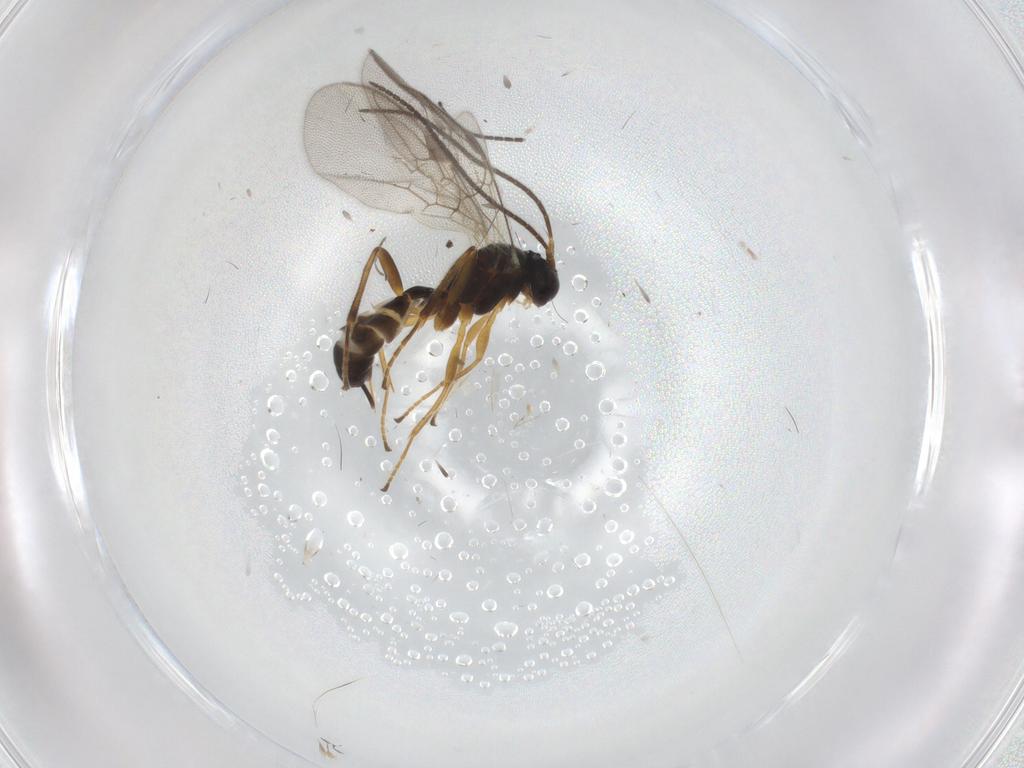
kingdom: Animalia
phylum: Arthropoda
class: Insecta
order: Hymenoptera
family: Ichneumonidae
